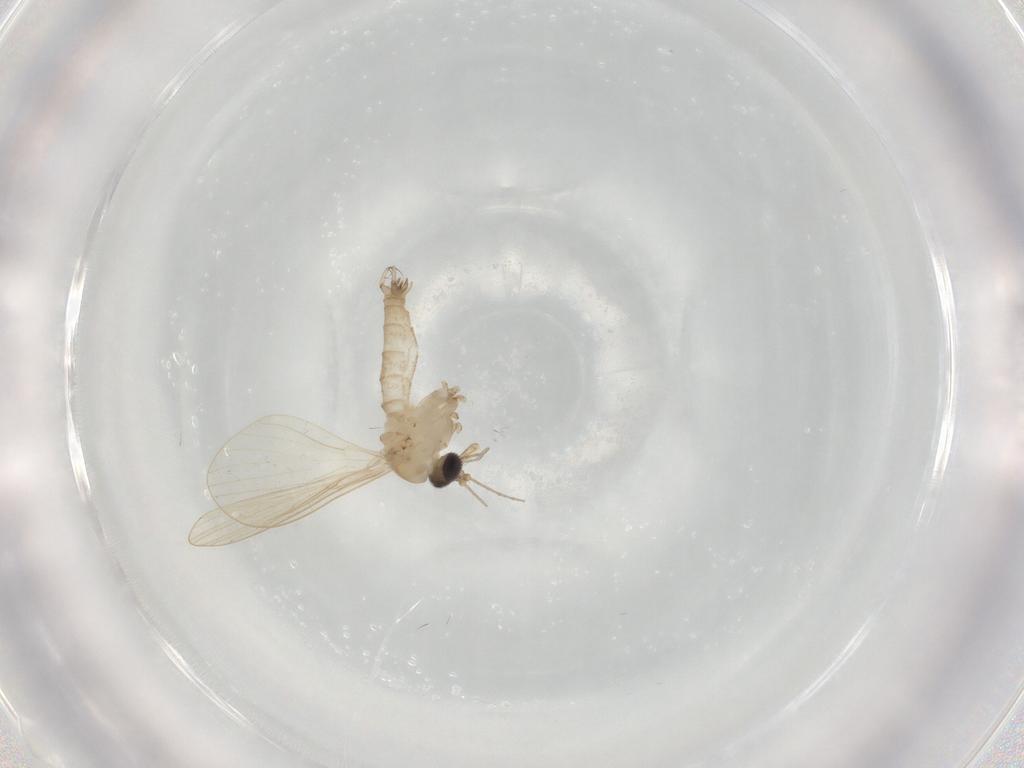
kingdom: Animalia
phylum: Arthropoda
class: Insecta
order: Diptera
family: Psychodidae
